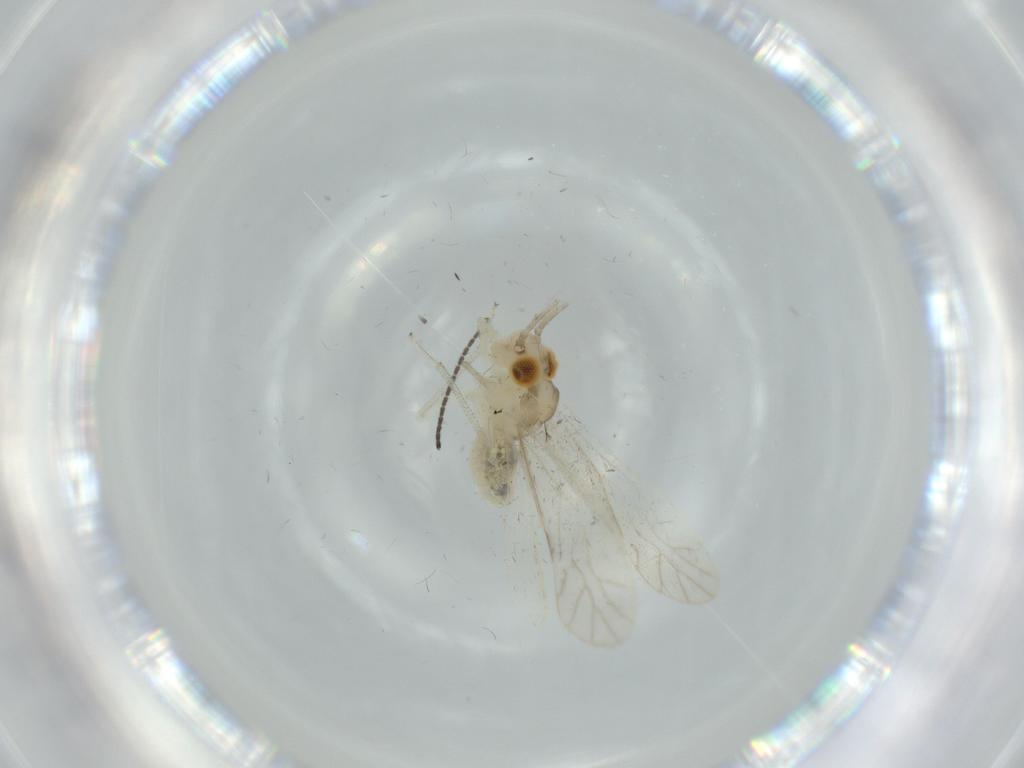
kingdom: Animalia
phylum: Arthropoda
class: Insecta
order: Psocodea
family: Caeciliusidae
